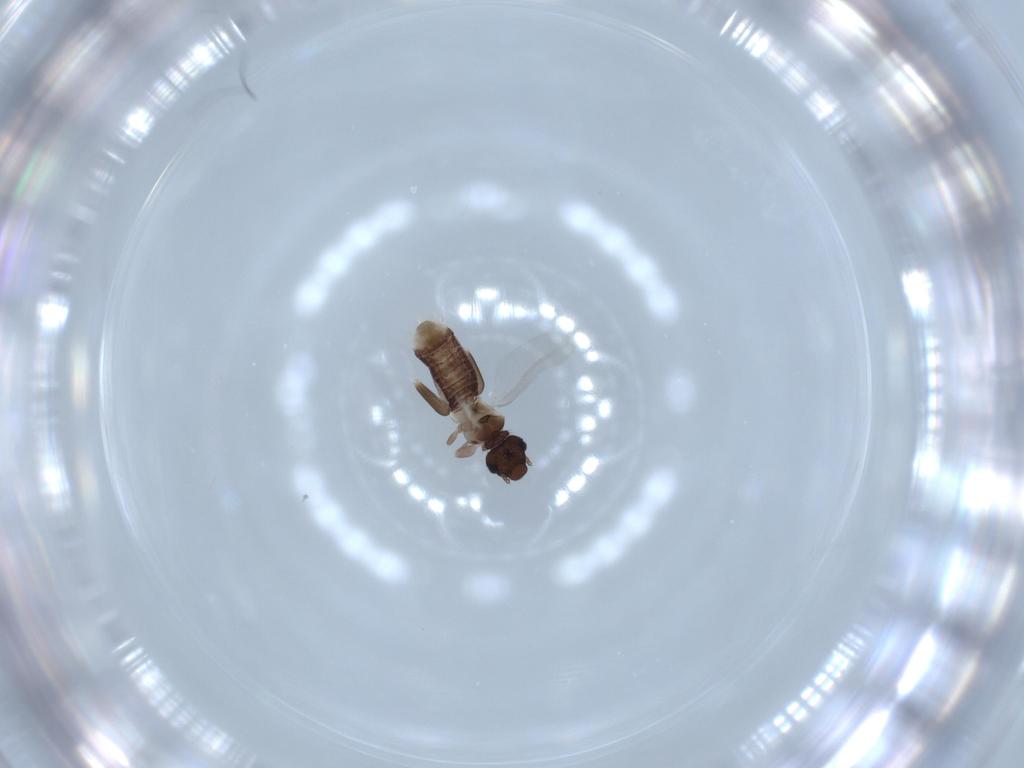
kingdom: Animalia
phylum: Arthropoda
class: Insecta
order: Psocodea
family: Liposcelididae
